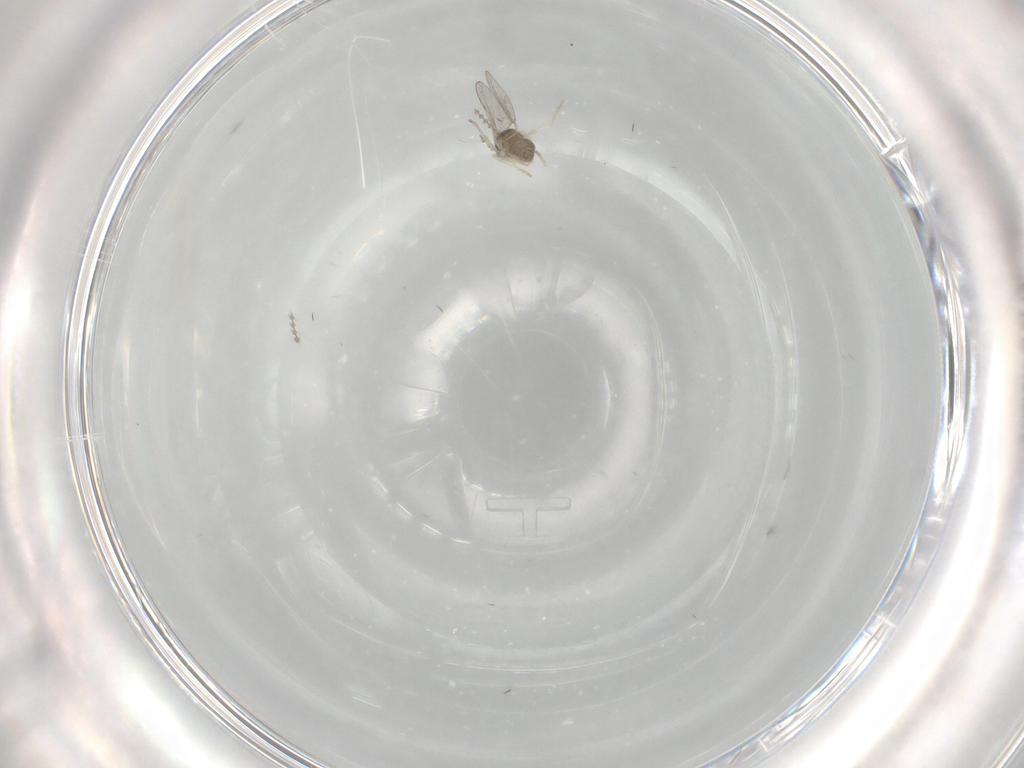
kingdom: Animalia
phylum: Arthropoda
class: Insecta
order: Diptera
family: Cecidomyiidae
